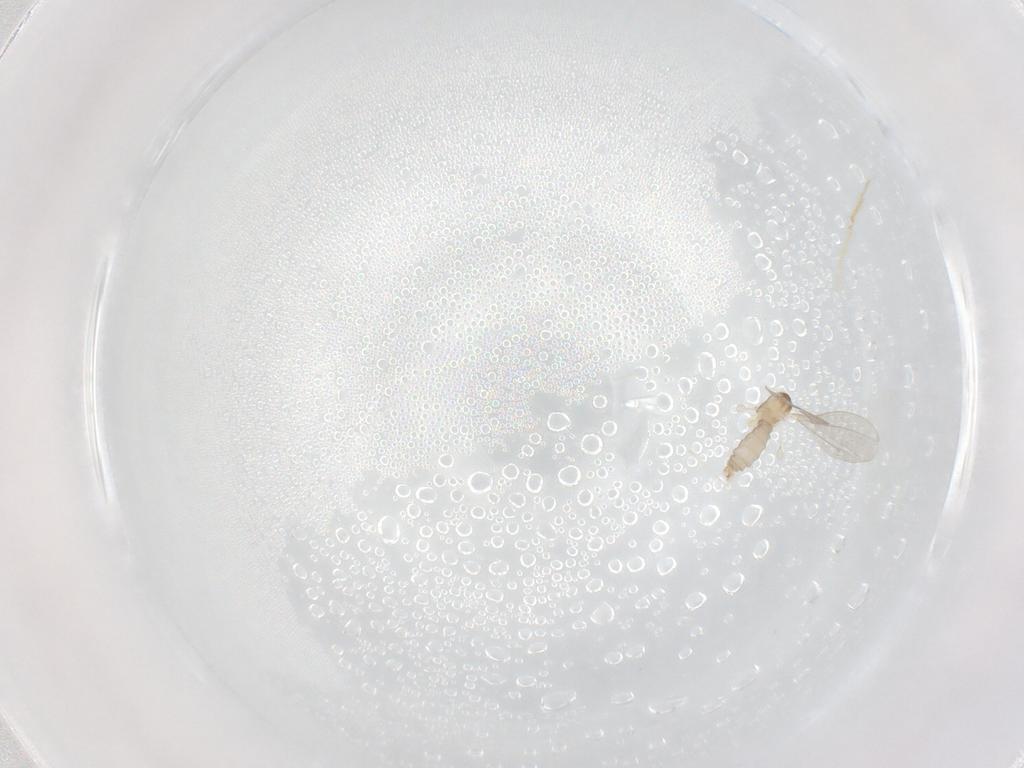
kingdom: Animalia
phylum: Arthropoda
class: Insecta
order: Diptera
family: Cecidomyiidae
